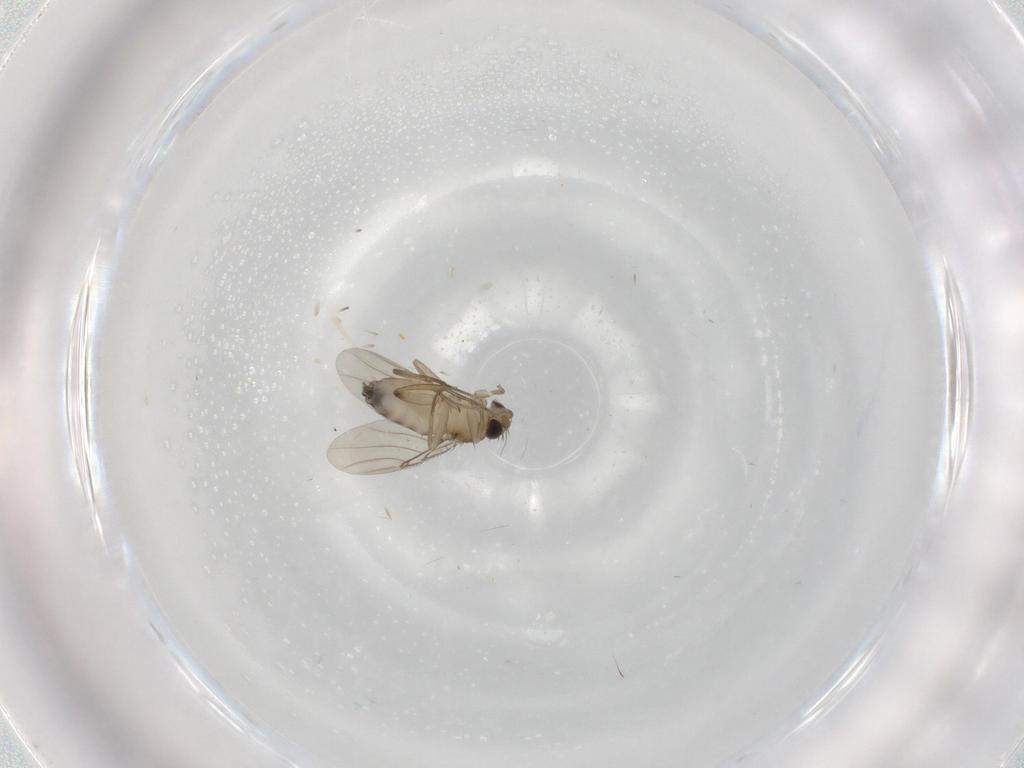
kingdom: Animalia
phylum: Arthropoda
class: Insecta
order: Diptera
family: Phoridae
